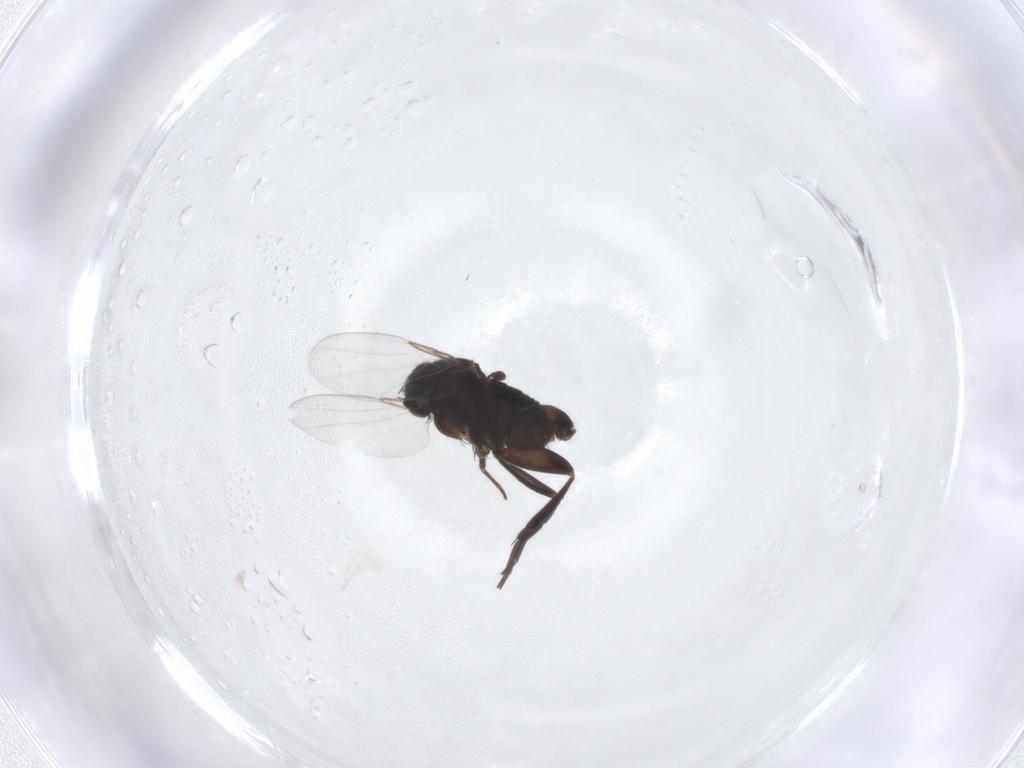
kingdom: Animalia
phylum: Arthropoda
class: Insecta
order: Diptera
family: Phoridae
